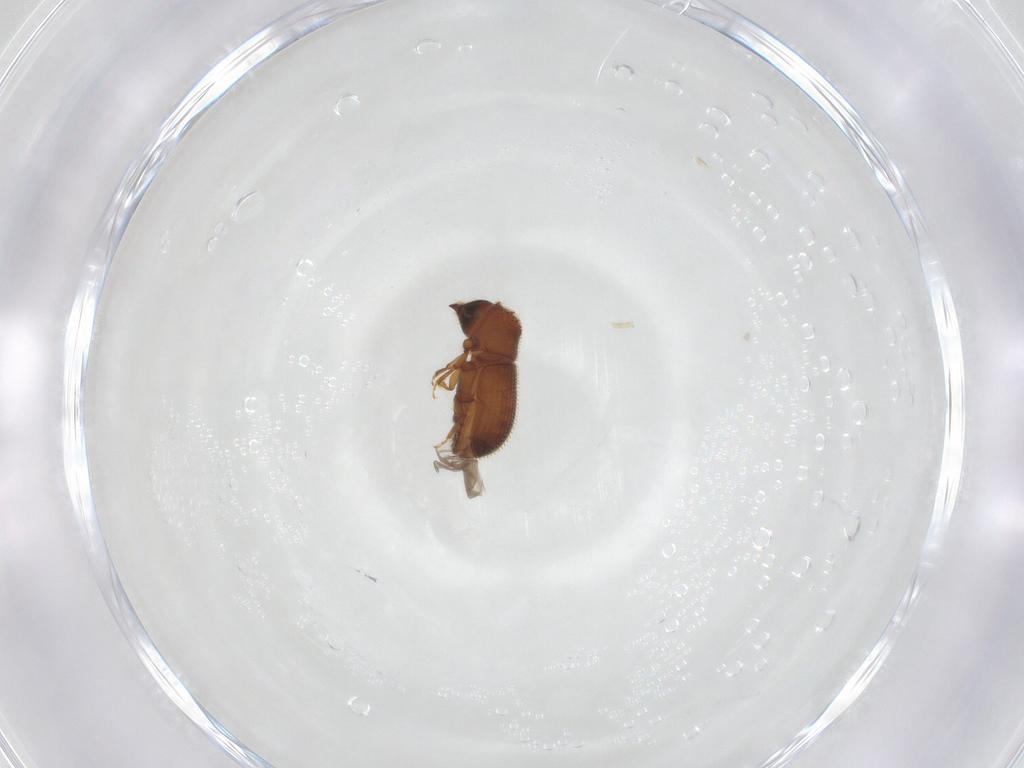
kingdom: Animalia
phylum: Arthropoda
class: Insecta
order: Coleoptera
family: Curculionidae
